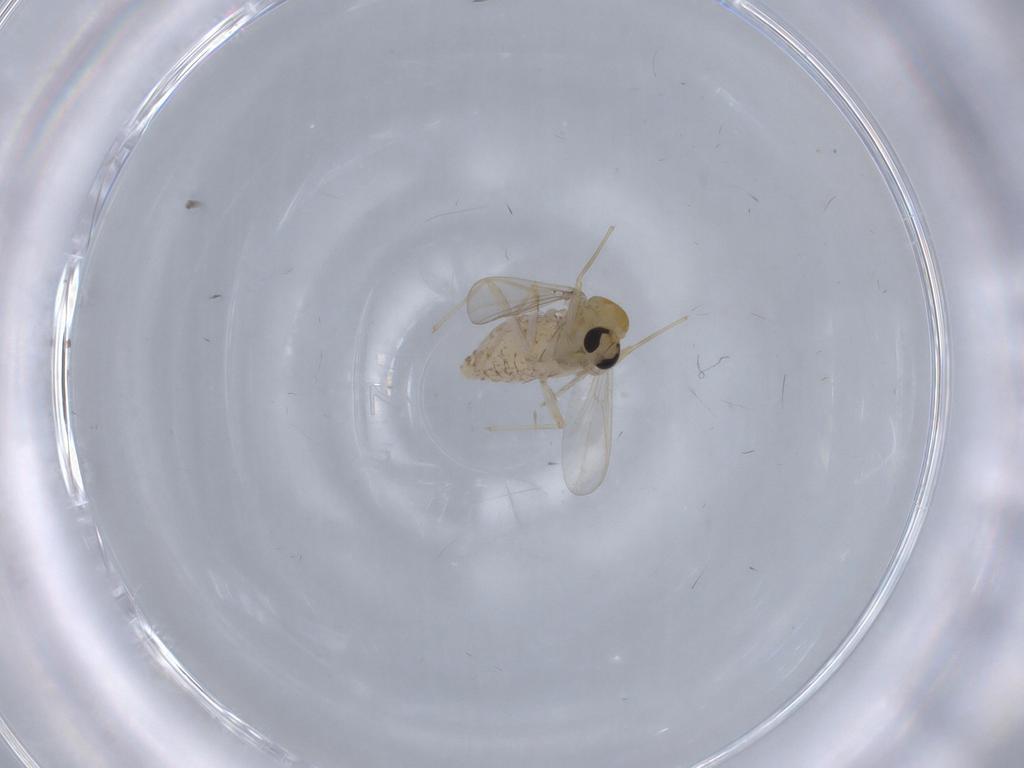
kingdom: Animalia
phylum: Arthropoda
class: Insecta
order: Diptera
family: Chironomidae
